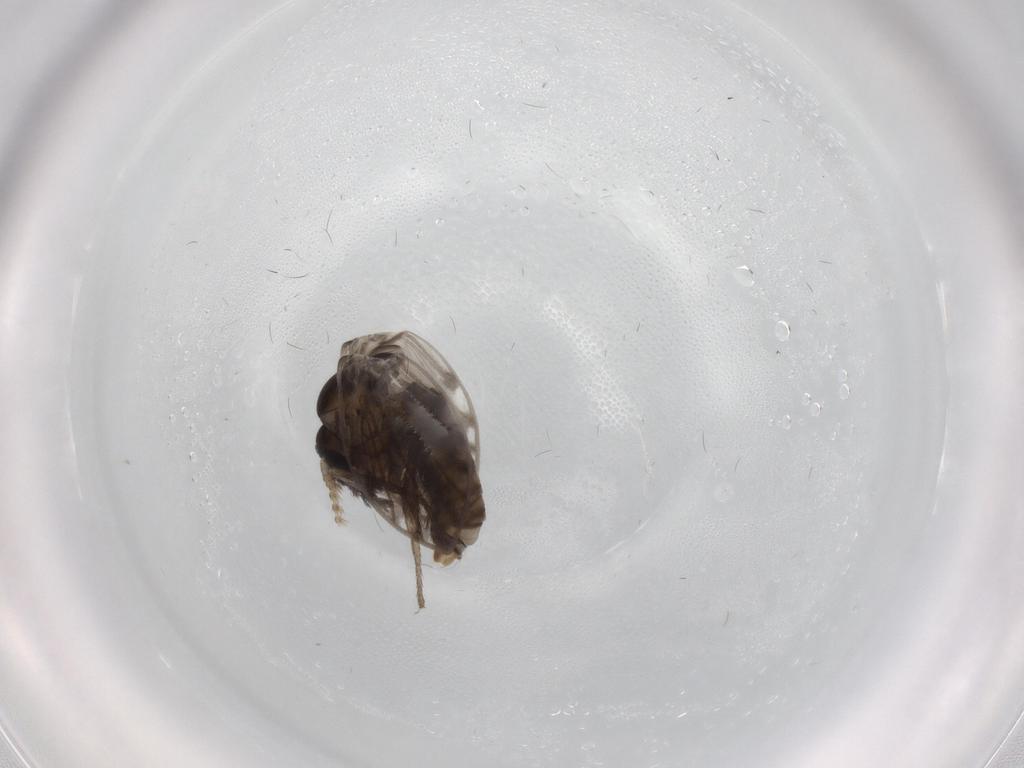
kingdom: Animalia
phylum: Arthropoda
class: Insecta
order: Diptera
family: Psychodidae
